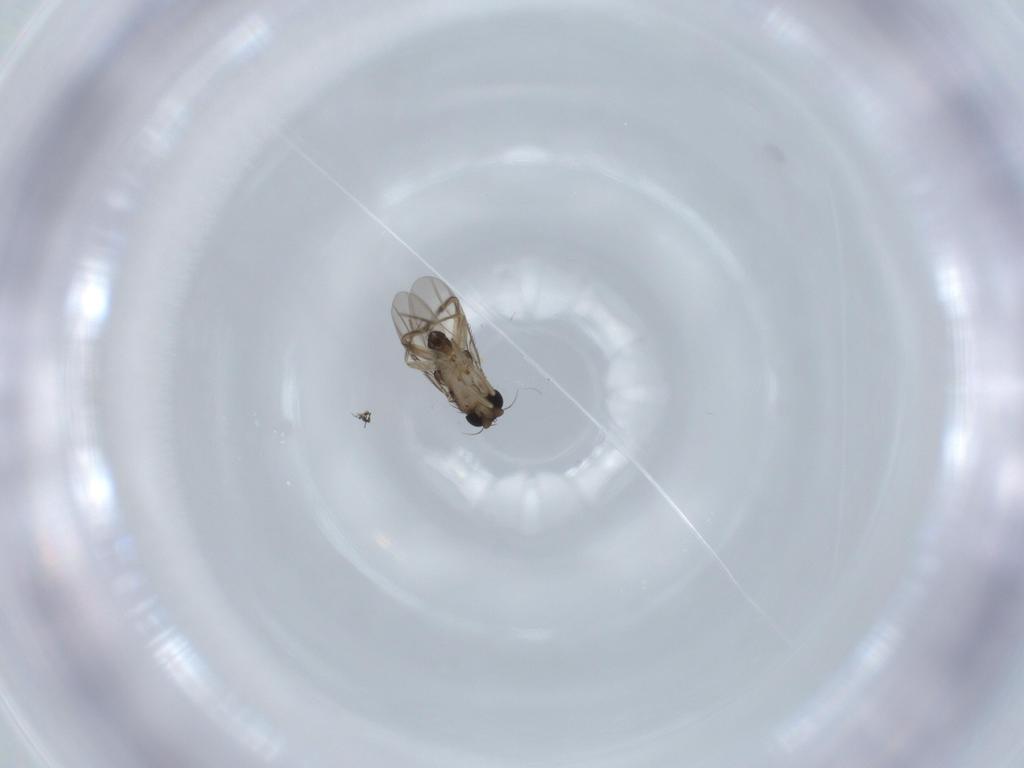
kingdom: Animalia
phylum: Arthropoda
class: Insecta
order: Diptera
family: Phoridae
